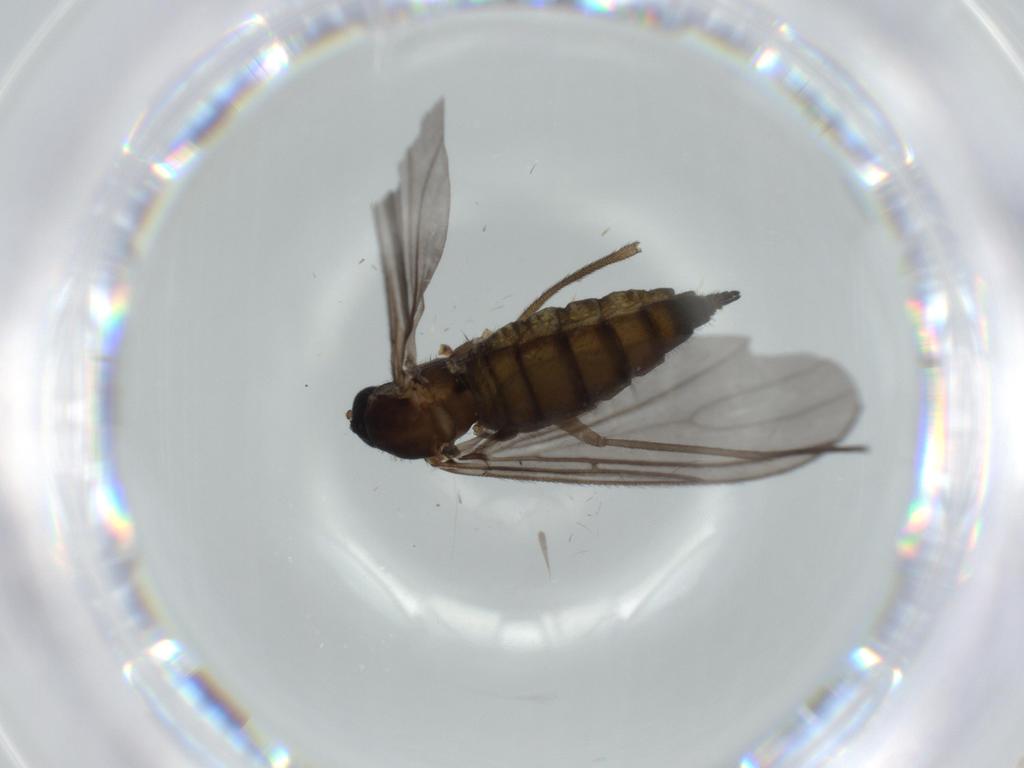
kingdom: Animalia
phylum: Arthropoda
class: Insecta
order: Diptera
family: Sciaridae
